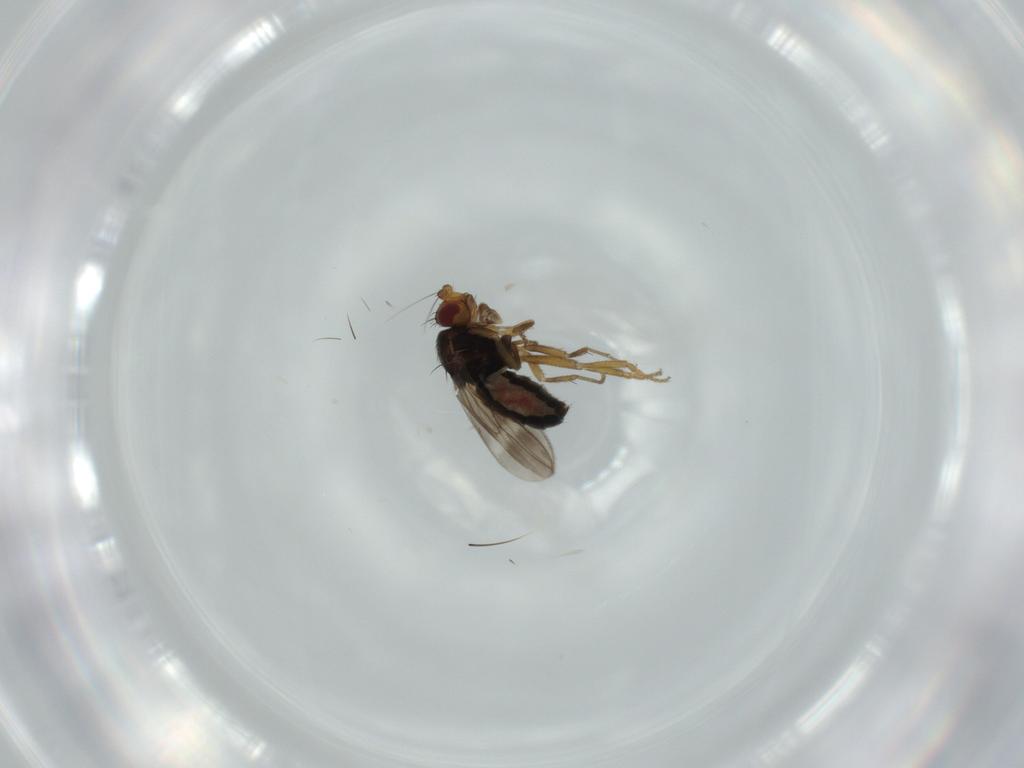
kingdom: Animalia
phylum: Arthropoda
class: Insecta
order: Diptera
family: Sphaeroceridae
